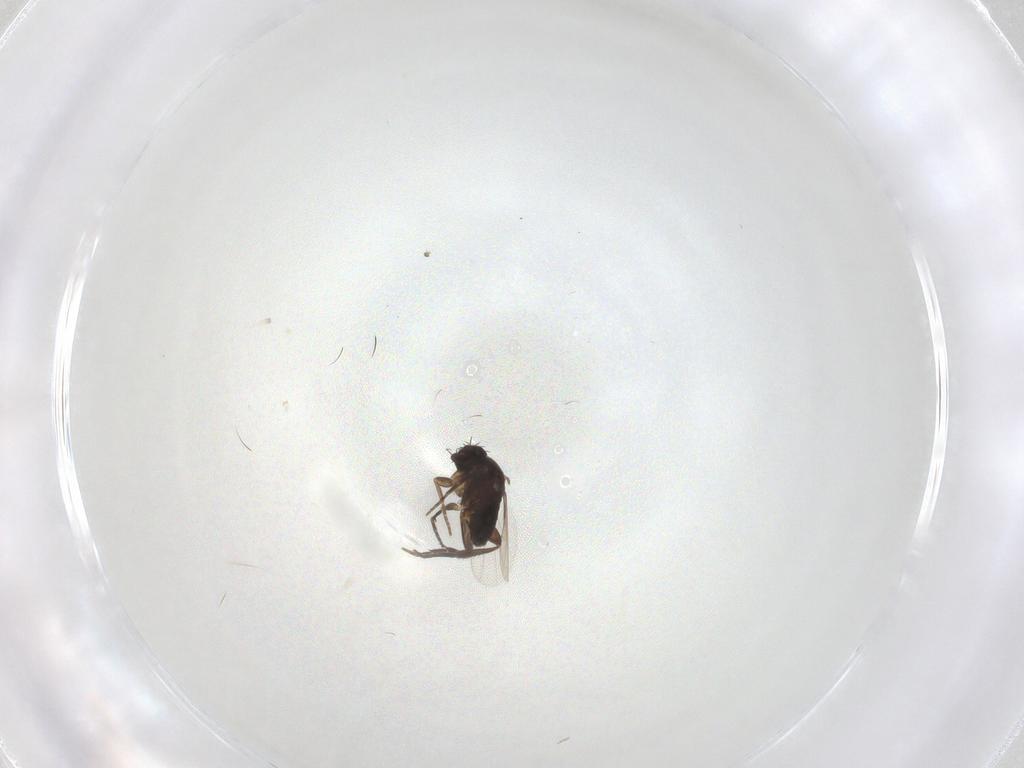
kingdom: Animalia
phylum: Arthropoda
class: Insecta
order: Diptera
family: Phoridae
